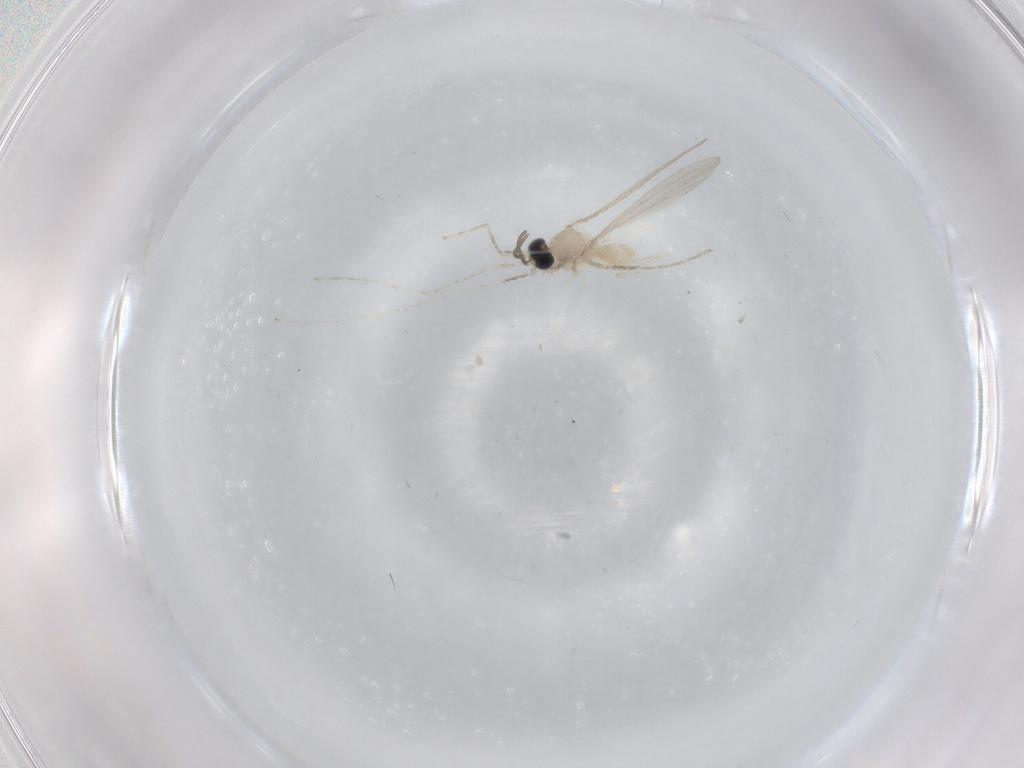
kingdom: Animalia
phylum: Arthropoda
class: Insecta
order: Diptera
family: Cecidomyiidae
